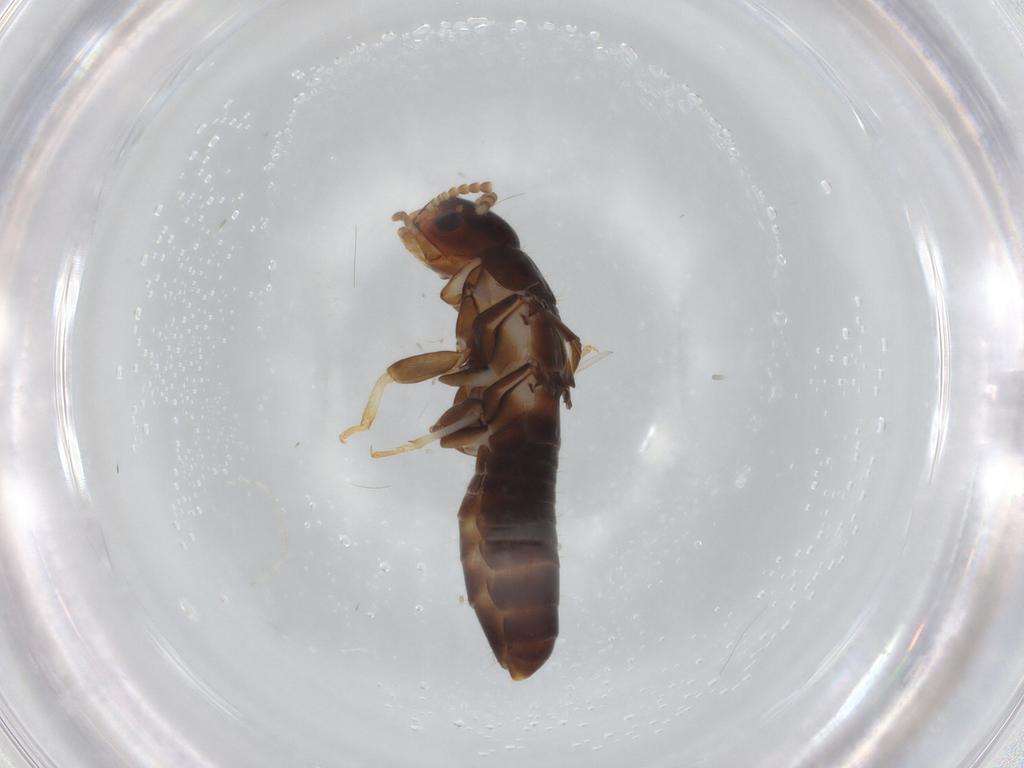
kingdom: Animalia
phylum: Arthropoda
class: Insecta
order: Blattodea
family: Kalotermitidae
